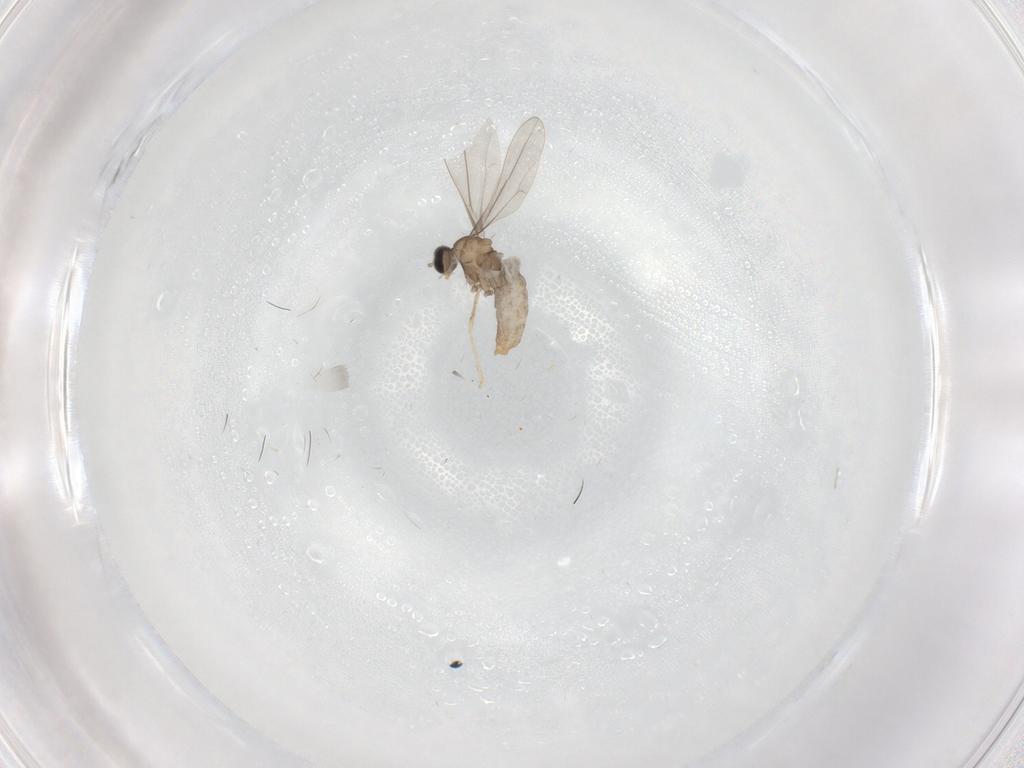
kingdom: Animalia
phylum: Arthropoda
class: Insecta
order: Diptera
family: Cecidomyiidae
